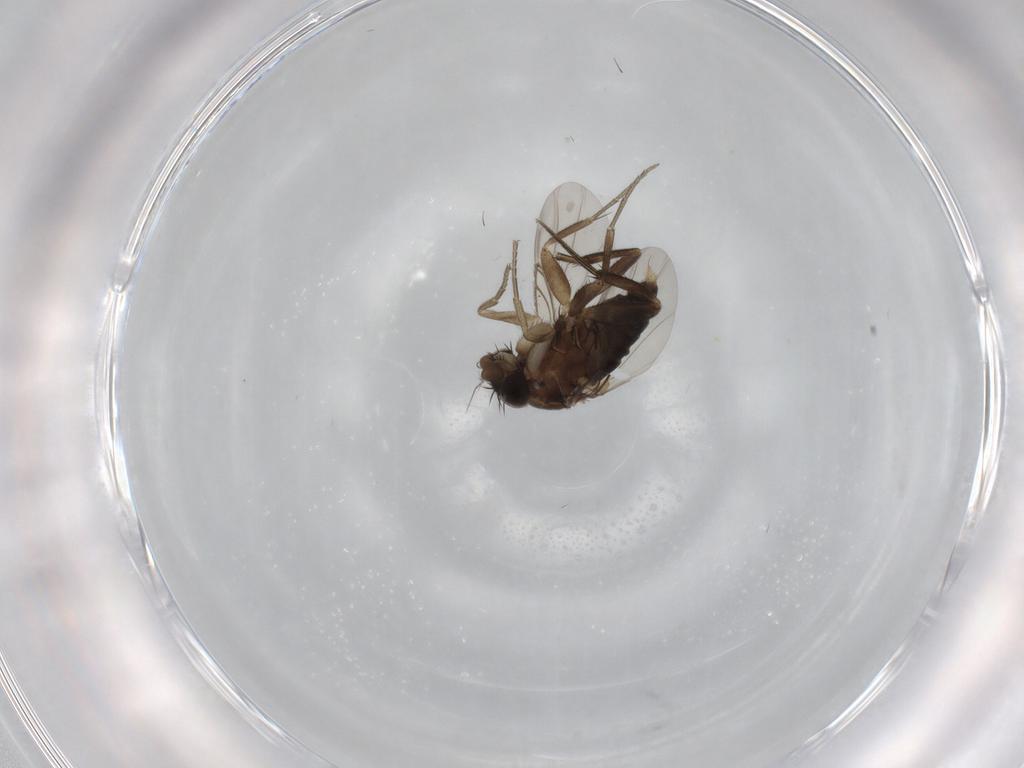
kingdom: Animalia
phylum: Arthropoda
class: Insecta
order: Diptera
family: Phoridae
